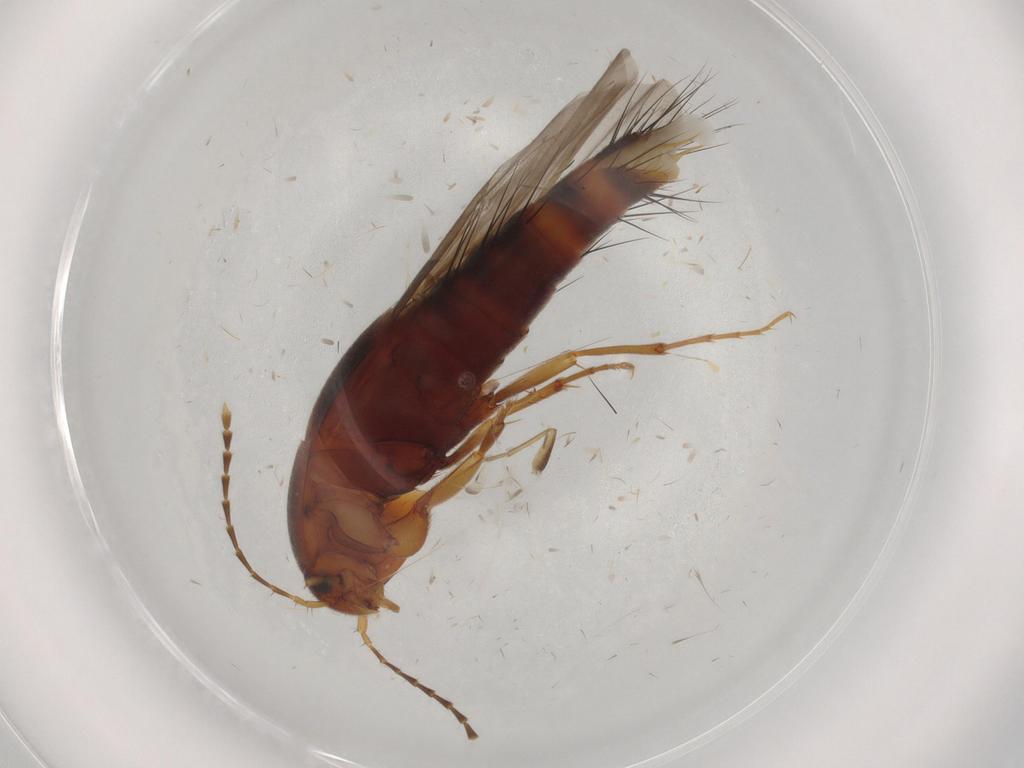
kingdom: Animalia
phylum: Arthropoda
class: Insecta
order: Coleoptera
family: Staphylinidae
